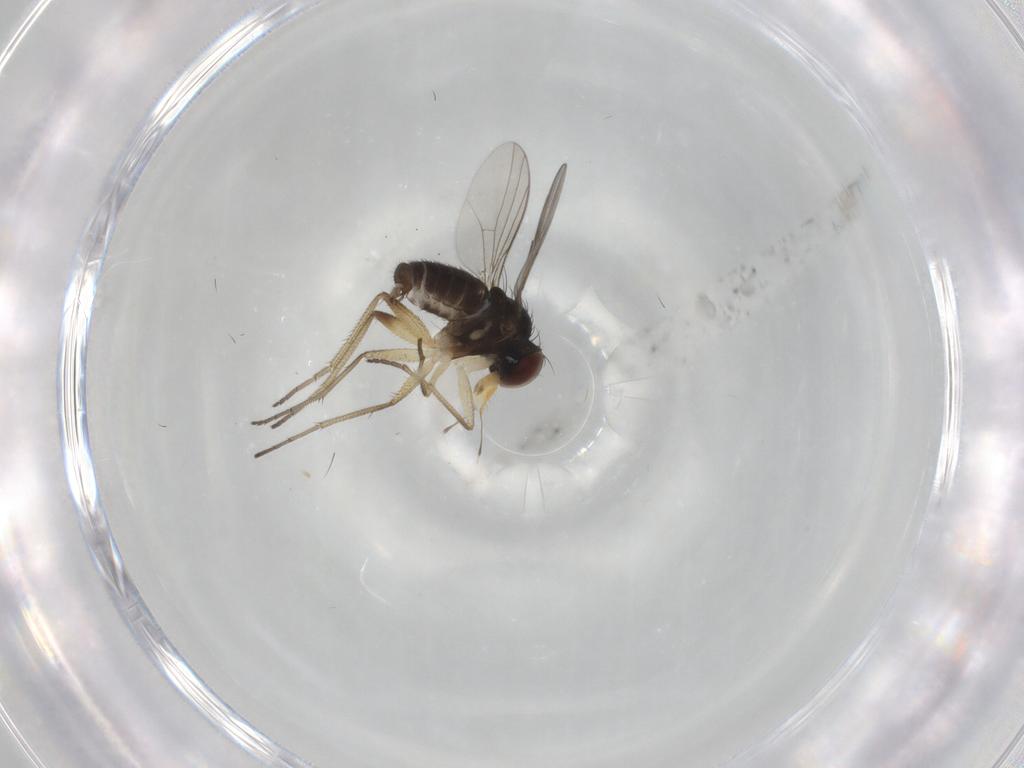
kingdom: Animalia
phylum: Arthropoda
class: Insecta
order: Diptera
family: Dolichopodidae
